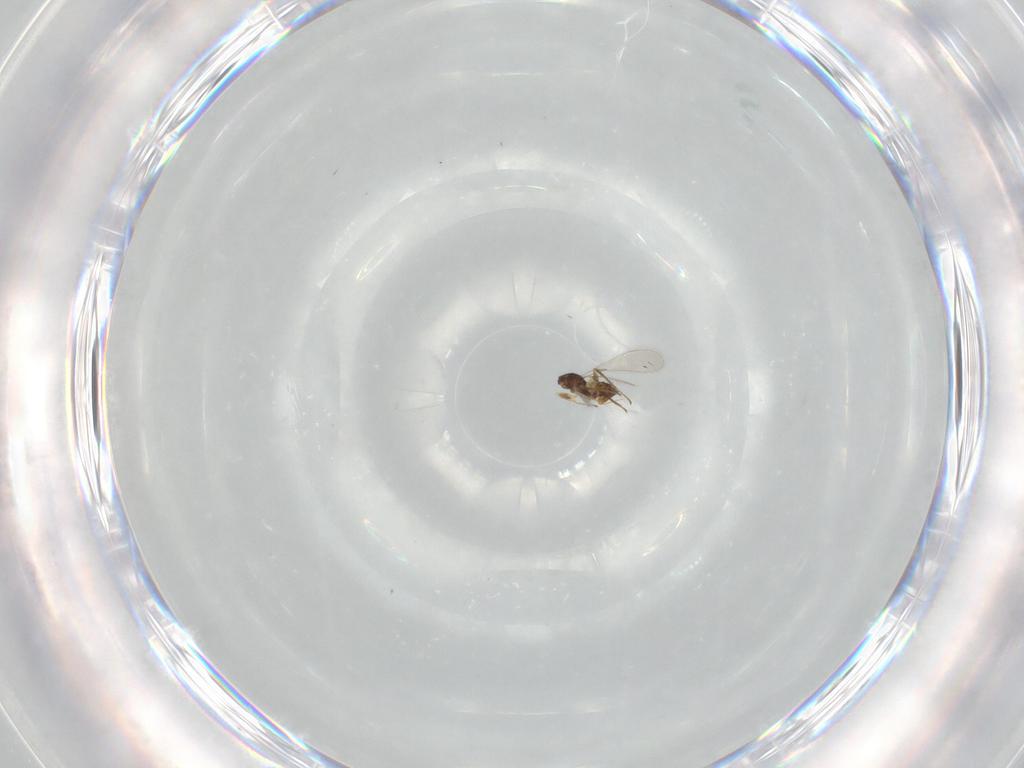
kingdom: Animalia
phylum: Arthropoda
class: Insecta
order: Hymenoptera
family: Mymaridae
